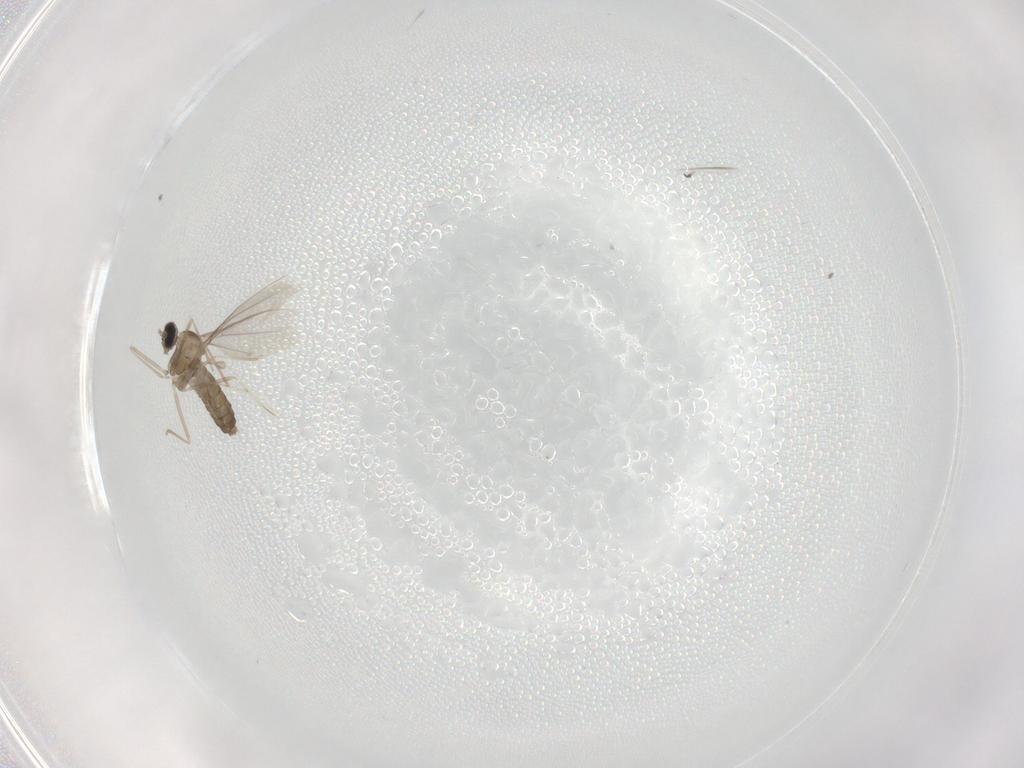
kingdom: Animalia
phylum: Arthropoda
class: Insecta
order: Diptera
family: Cecidomyiidae
